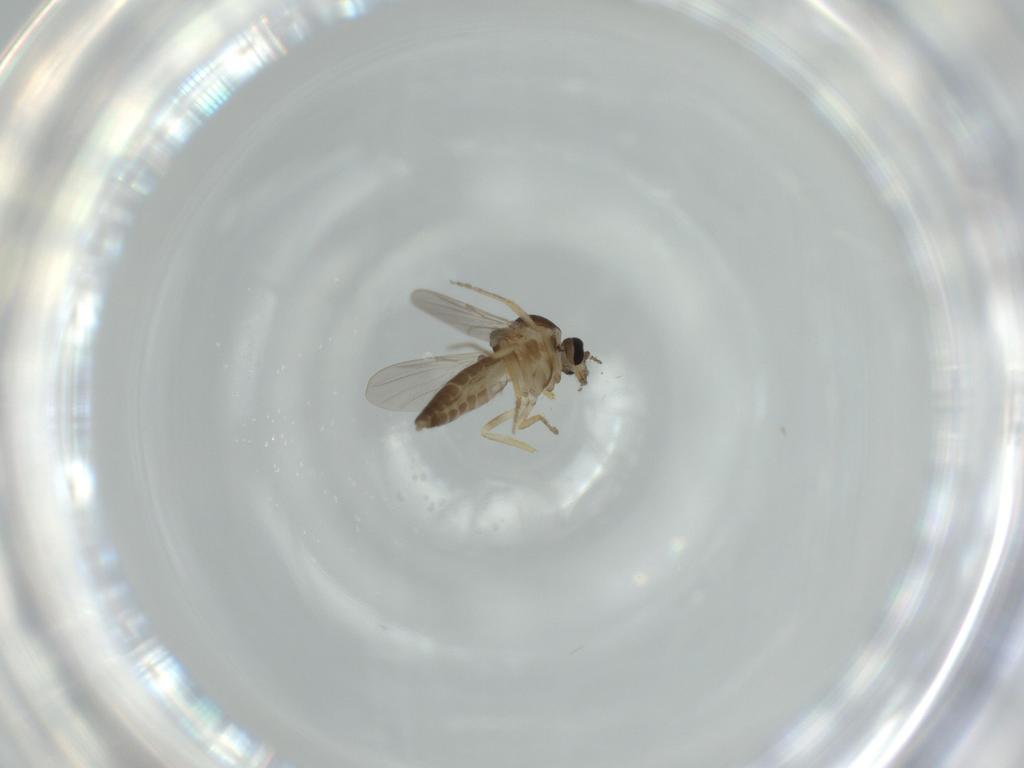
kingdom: Animalia
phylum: Arthropoda
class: Insecta
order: Diptera
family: Ceratopogonidae
